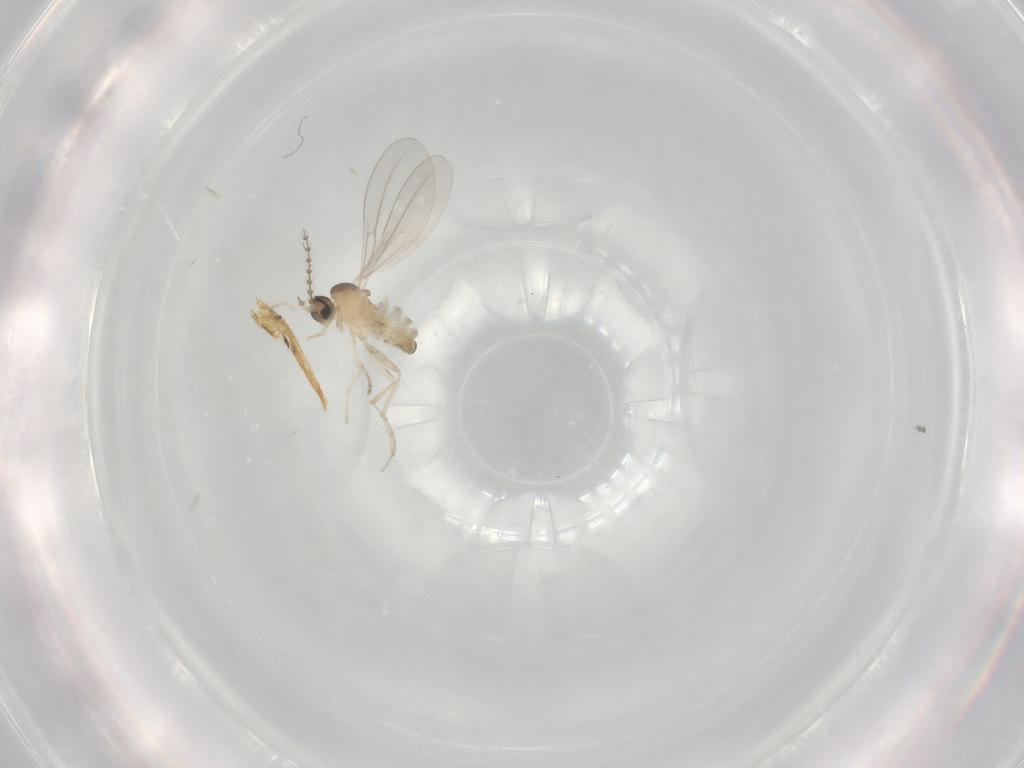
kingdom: Animalia
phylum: Arthropoda
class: Insecta
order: Diptera
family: Cecidomyiidae
